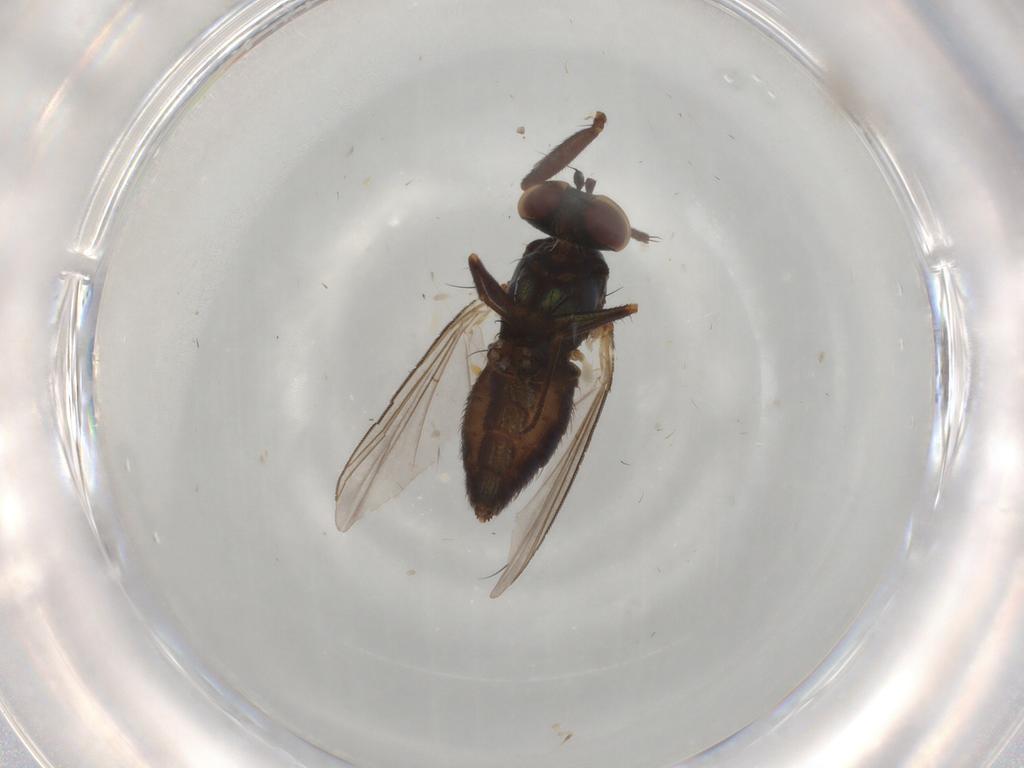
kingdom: Animalia
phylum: Arthropoda
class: Insecta
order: Diptera
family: Dolichopodidae
